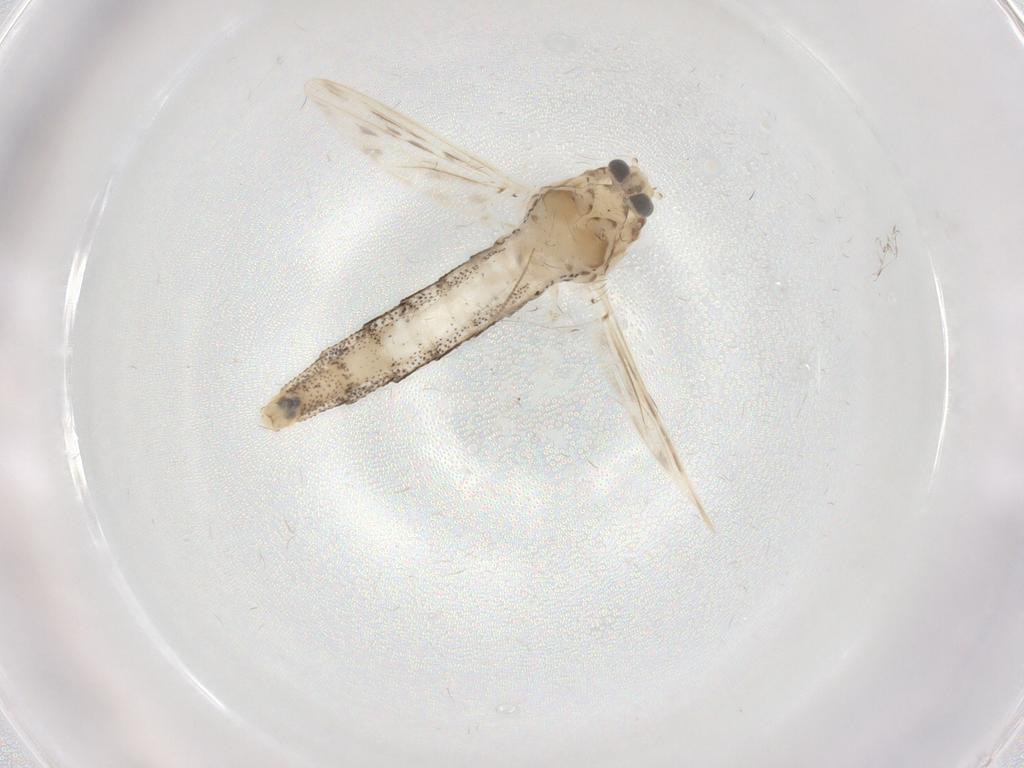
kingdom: Animalia
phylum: Arthropoda
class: Insecta
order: Diptera
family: Chaoboridae
